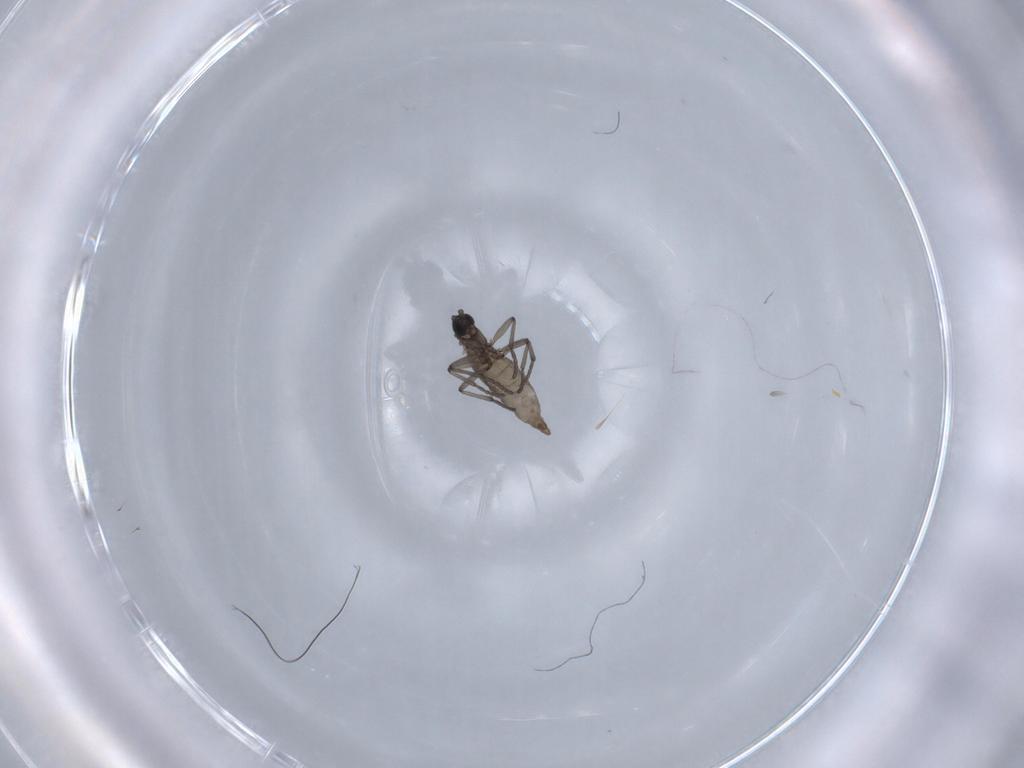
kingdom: Animalia
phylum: Arthropoda
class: Insecta
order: Diptera
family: Sciaridae
